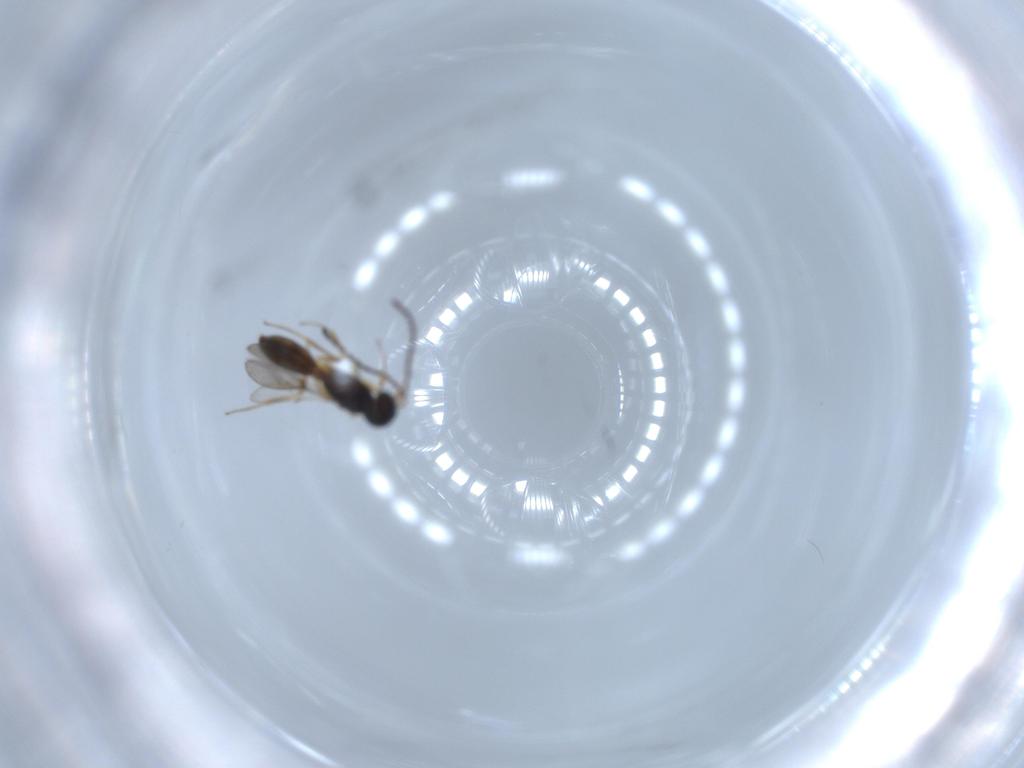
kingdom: Animalia
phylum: Arthropoda
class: Insecta
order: Hymenoptera
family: Scelionidae
